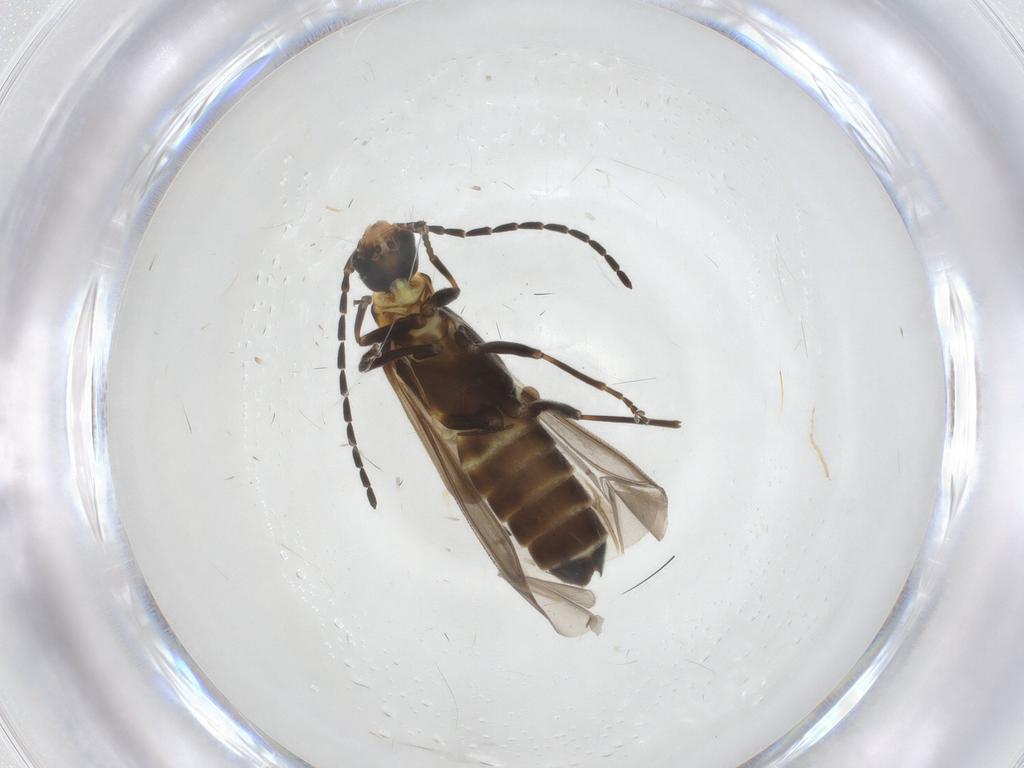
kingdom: Animalia
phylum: Arthropoda
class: Insecta
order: Coleoptera
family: Cantharidae
